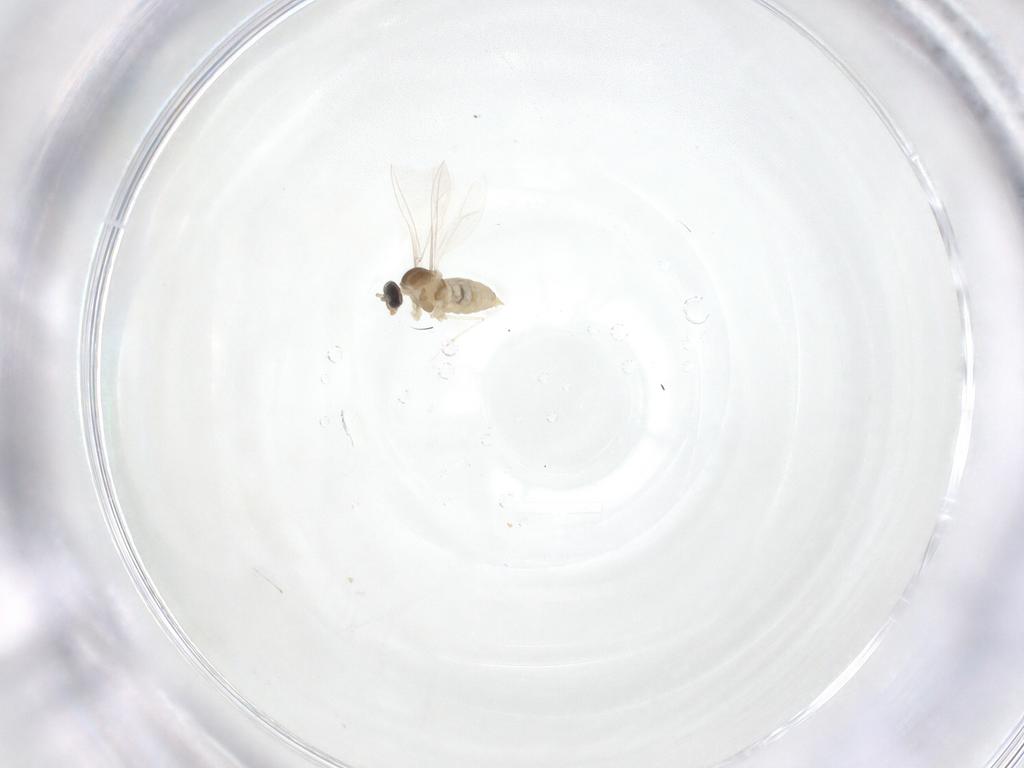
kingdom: Animalia
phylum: Arthropoda
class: Insecta
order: Diptera
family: Cecidomyiidae
